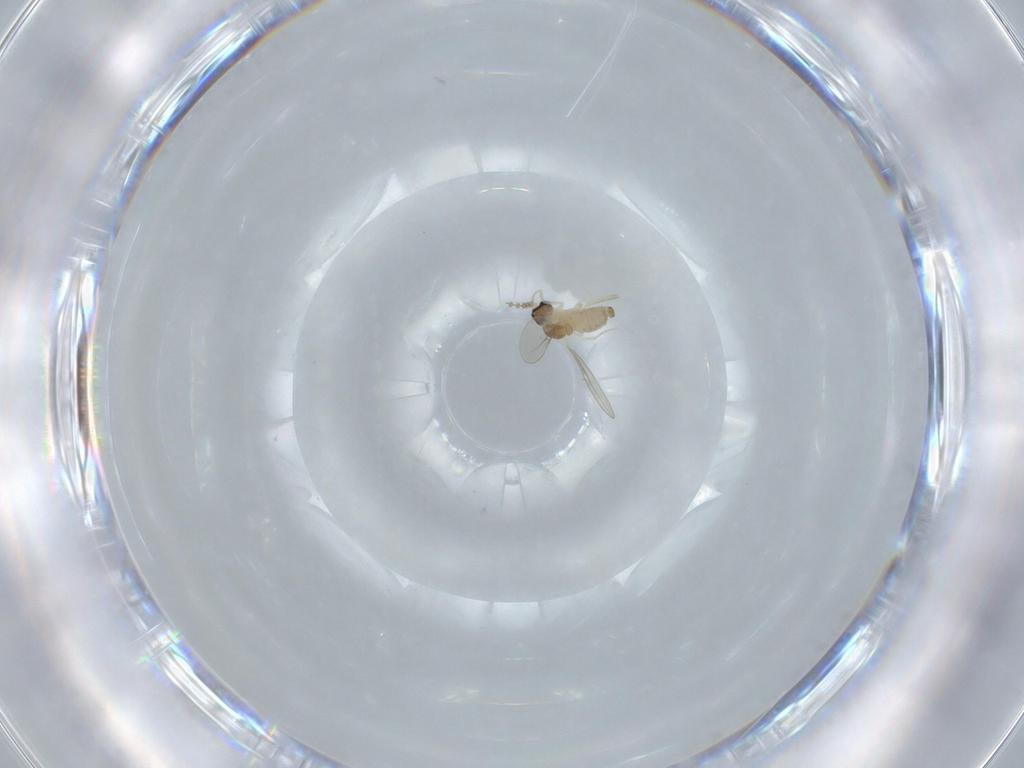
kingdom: Animalia
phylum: Arthropoda
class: Insecta
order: Diptera
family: Cecidomyiidae
